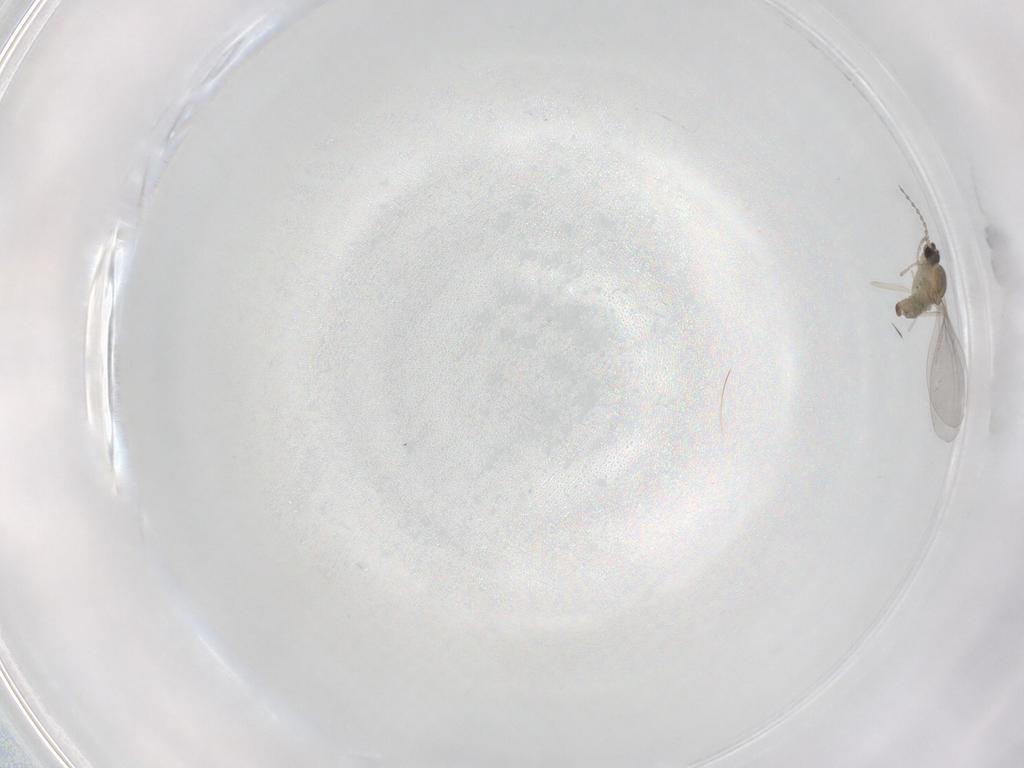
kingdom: Animalia
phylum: Arthropoda
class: Insecta
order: Diptera
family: Cecidomyiidae
